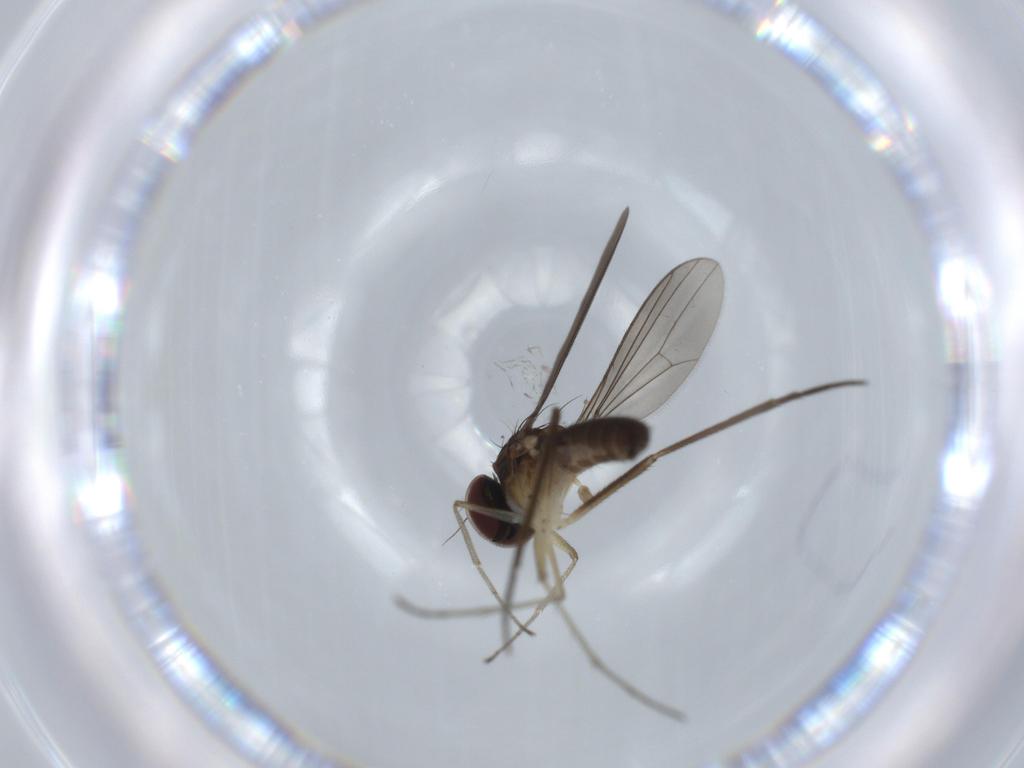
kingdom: Animalia
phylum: Arthropoda
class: Insecta
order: Diptera
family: Dolichopodidae
